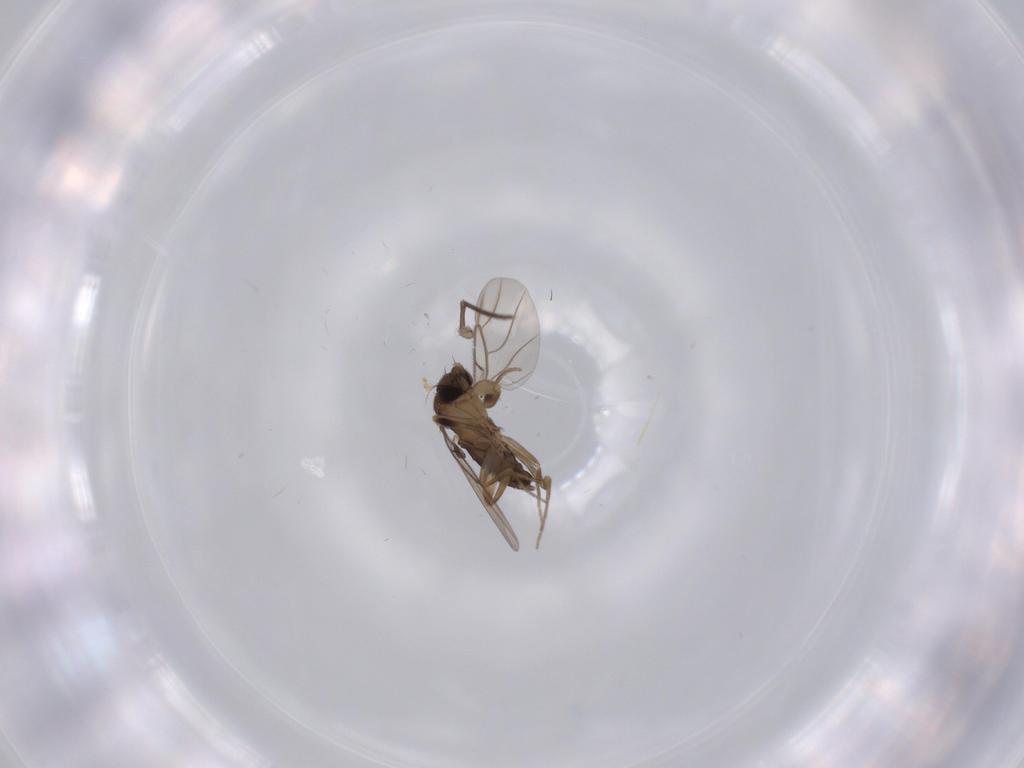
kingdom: Animalia
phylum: Arthropoda
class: Insecta
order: Diptera
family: Phoridae
